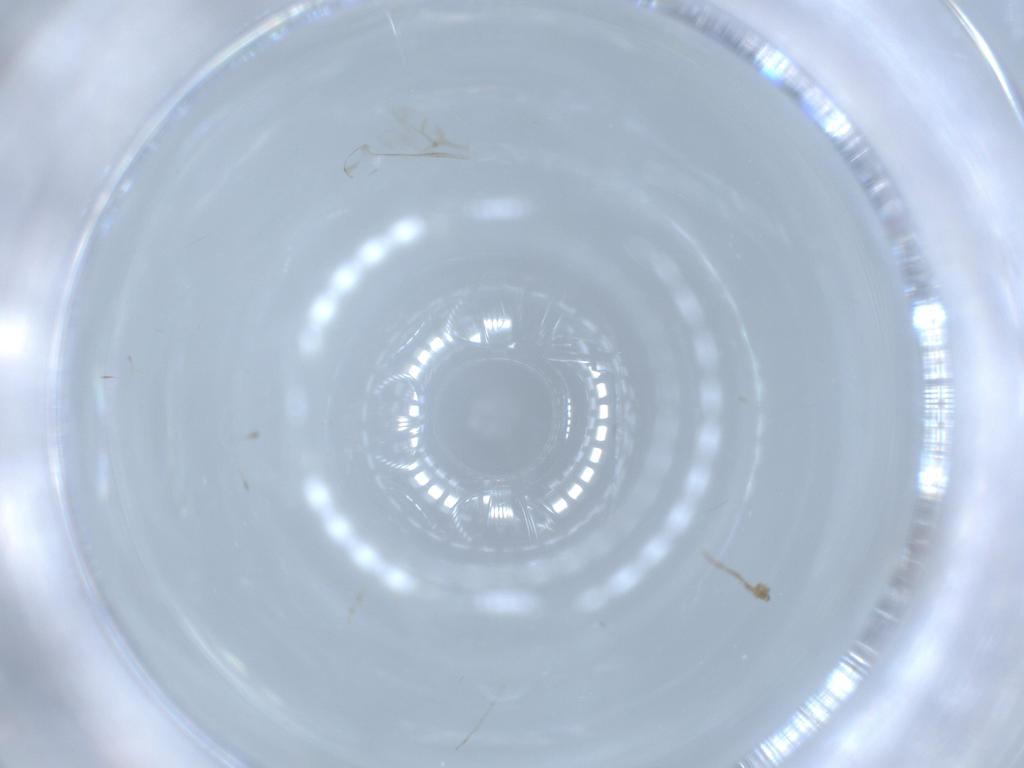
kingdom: Animalia
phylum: Arthropoda
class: Insecta
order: Diptera
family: Cecidomyiidae
